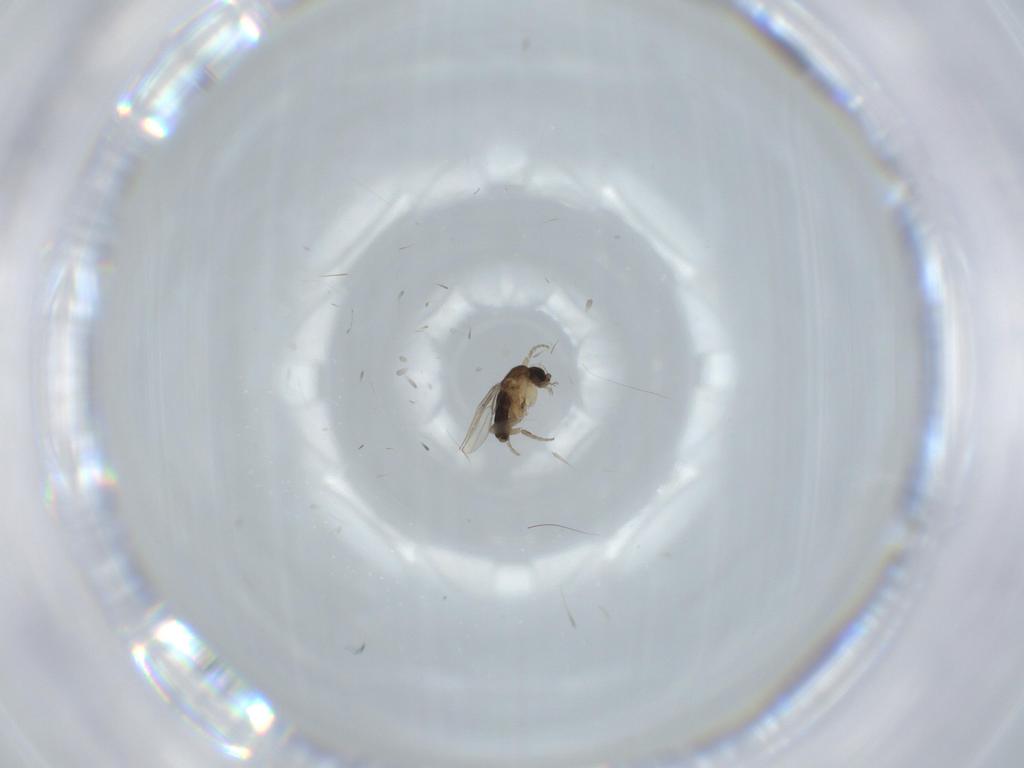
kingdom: Animalia
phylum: Arthropoda
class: Insecta
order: Diptera
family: Phoridae
